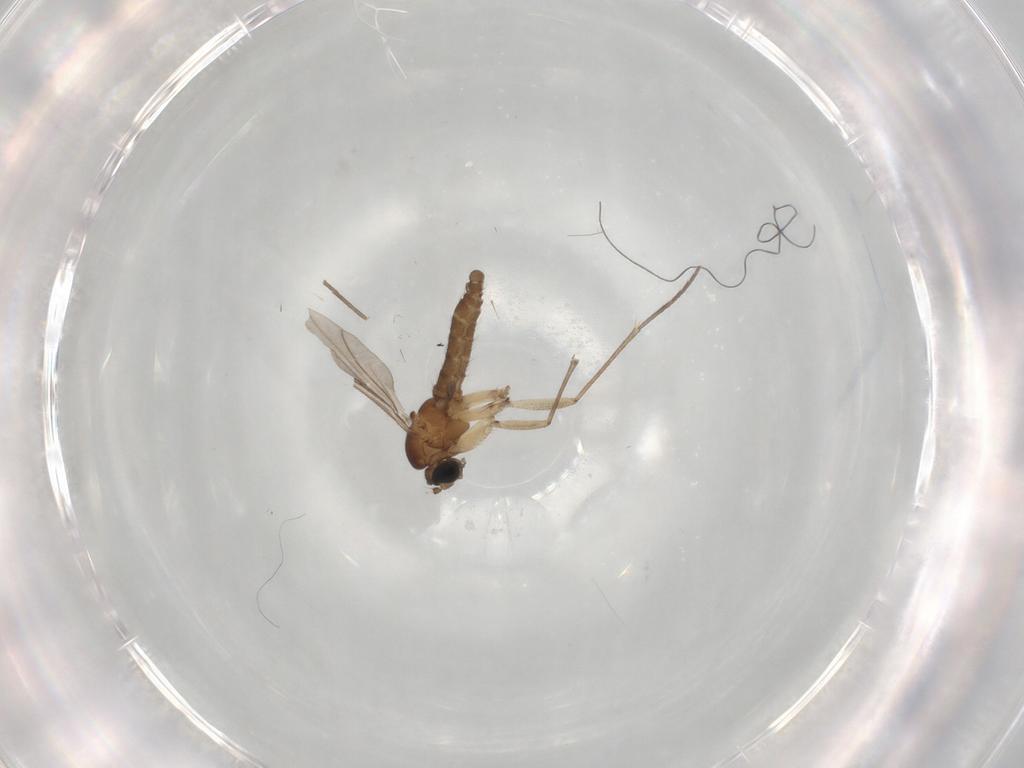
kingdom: Animalia
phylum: Arthropoda
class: Insecta
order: Diptera
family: Sciaridae
